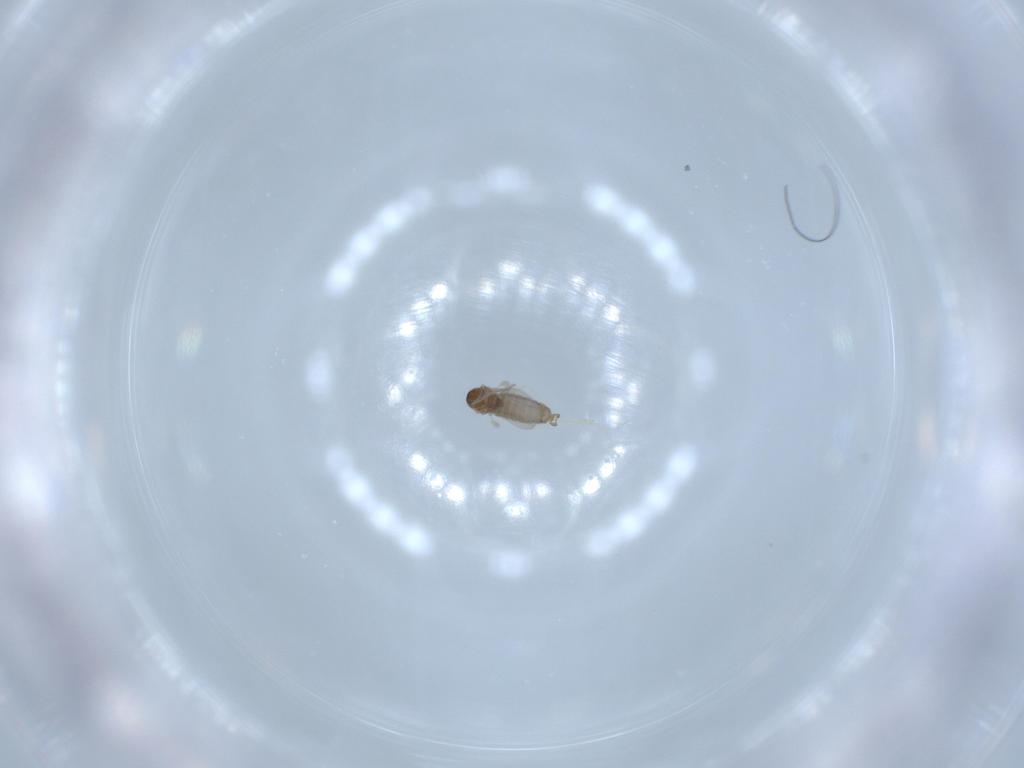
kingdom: Animalia
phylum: Arthropoda
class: Insecta
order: Diptera
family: Cecidomyiidae
